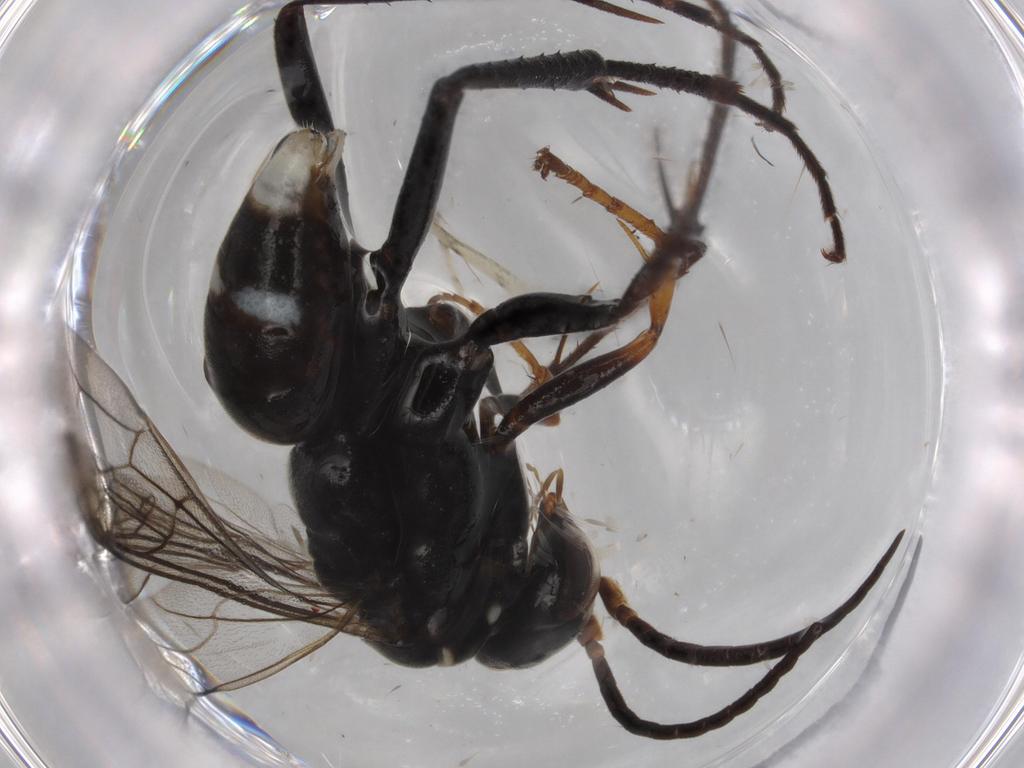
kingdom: Animalia
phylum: Arthropoda
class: Insecta
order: Hymenoptera
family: Pompilidae
